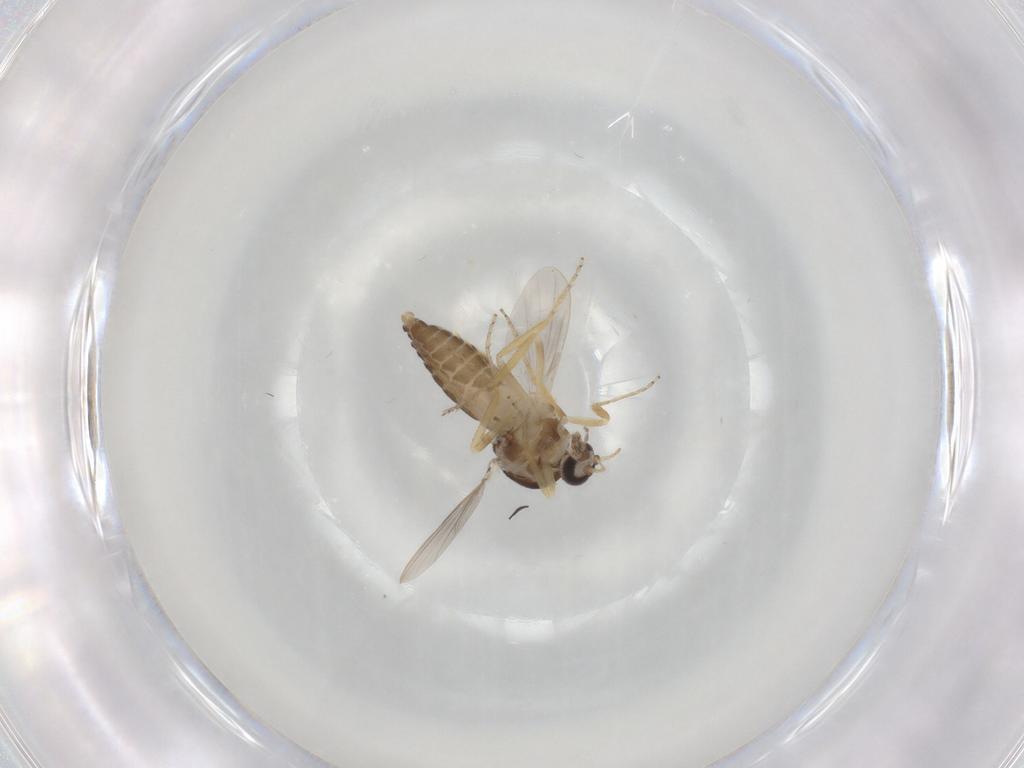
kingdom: Animalia
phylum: Arthropoda
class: Insecta
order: Diptera
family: Ceratopogonidae
